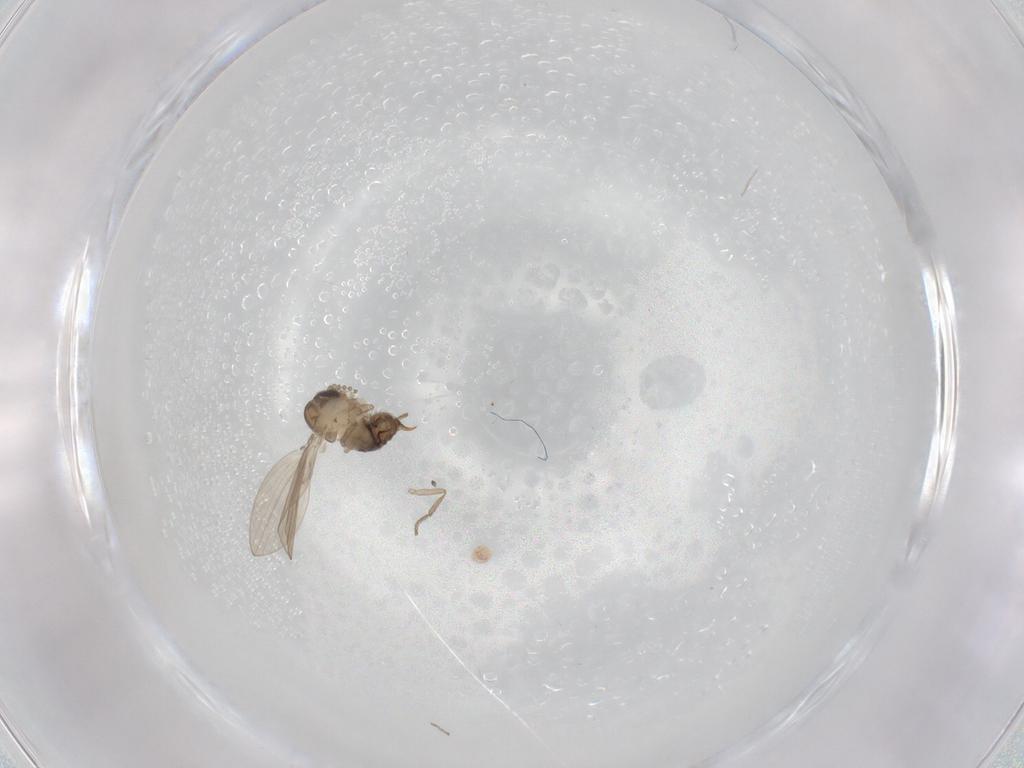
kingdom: Animalia
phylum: Arthropoda
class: Insecta
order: Diptera
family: Psychodidae
